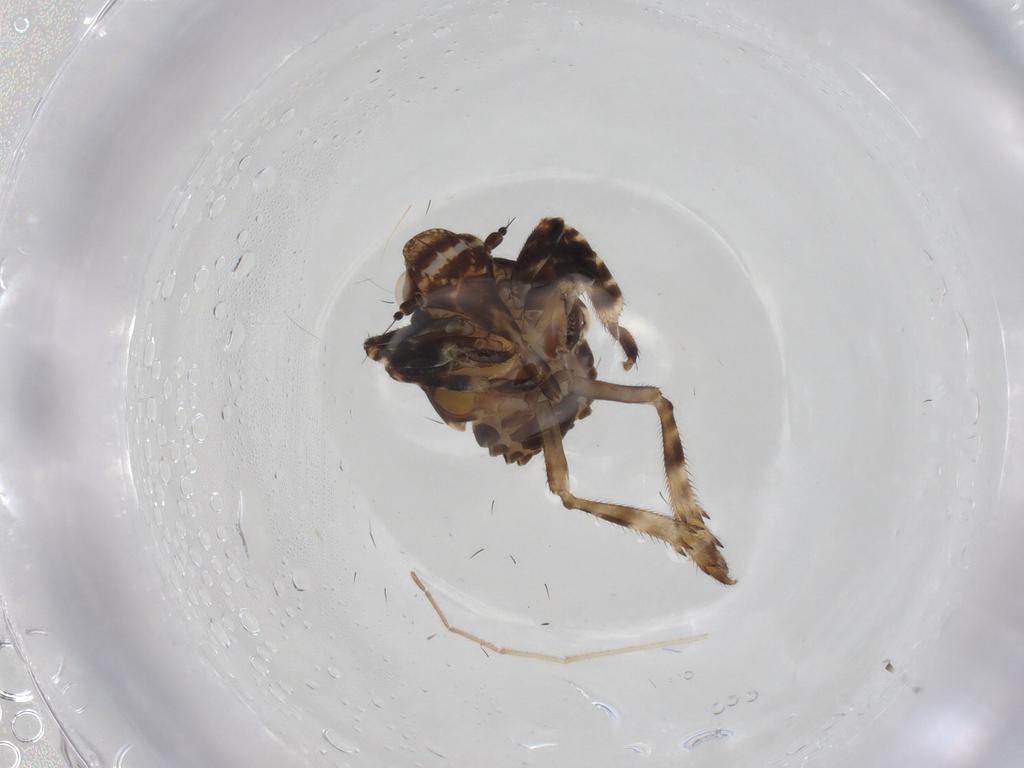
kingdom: Animalia
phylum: Arthropoda
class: Insecta
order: Hemiptera
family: Eurybrachidae
